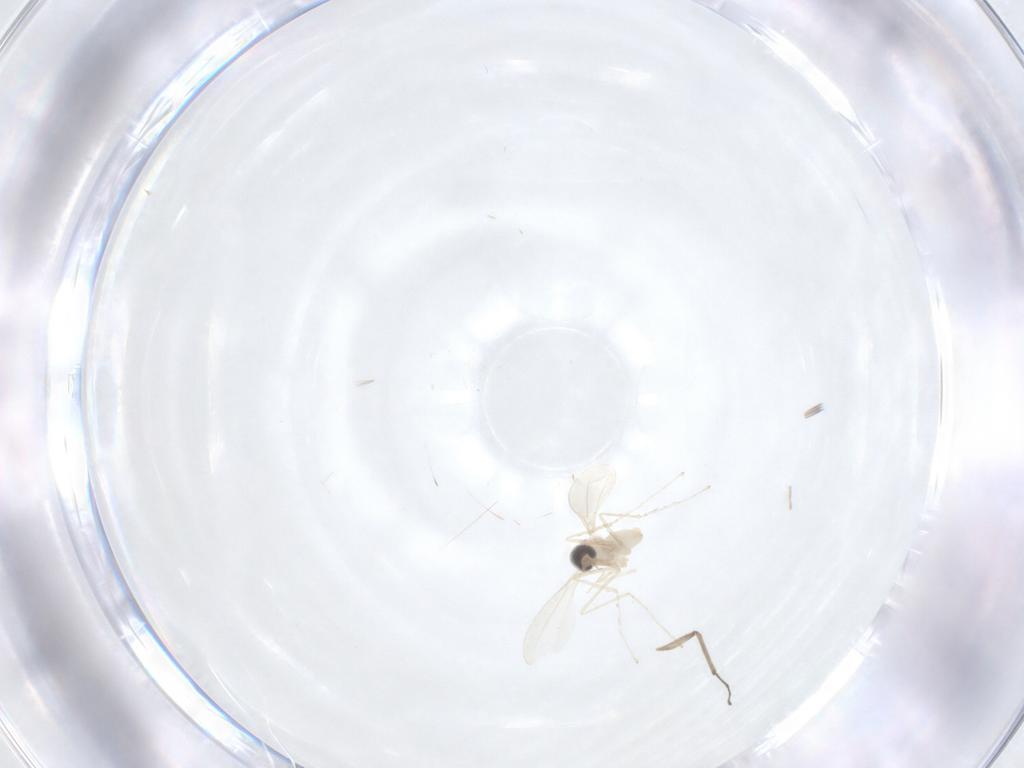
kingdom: Animalia
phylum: Arthropoda
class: Insecta
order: Diptera
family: Cecidomyiidae
